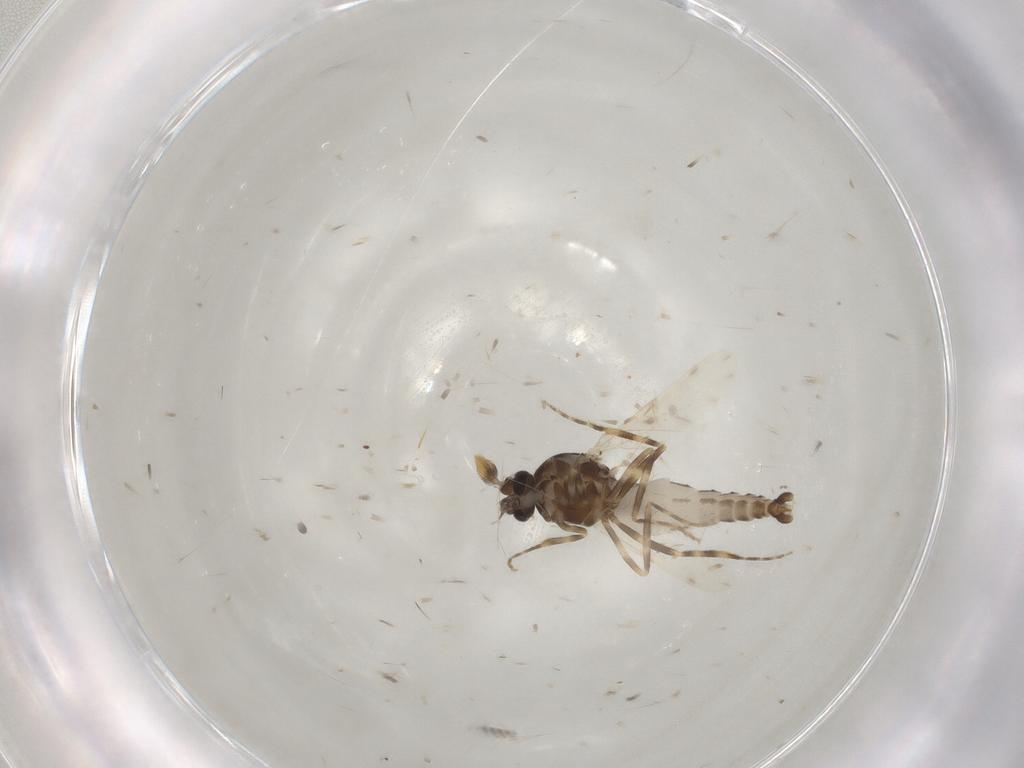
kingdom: Animalia
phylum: Arthropoda
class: Insecta
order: Diptera
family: Ceratopogonidae
